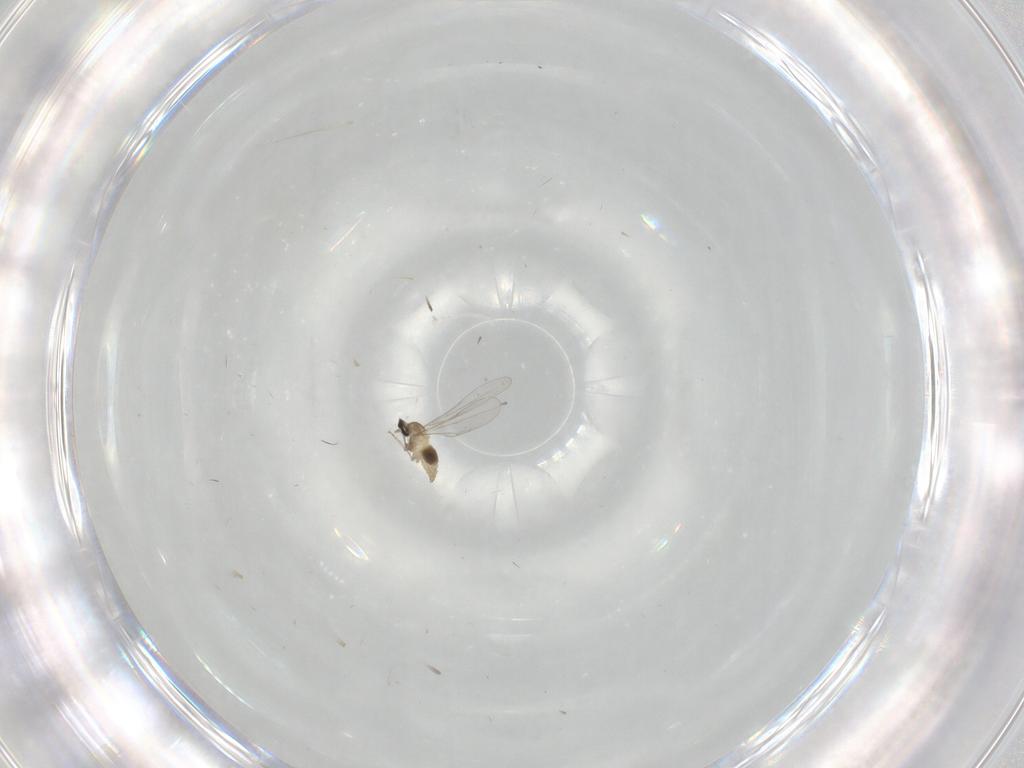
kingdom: Animalia
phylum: Arthropoda
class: Insecta
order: Diptera
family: Cecidomyiidae
